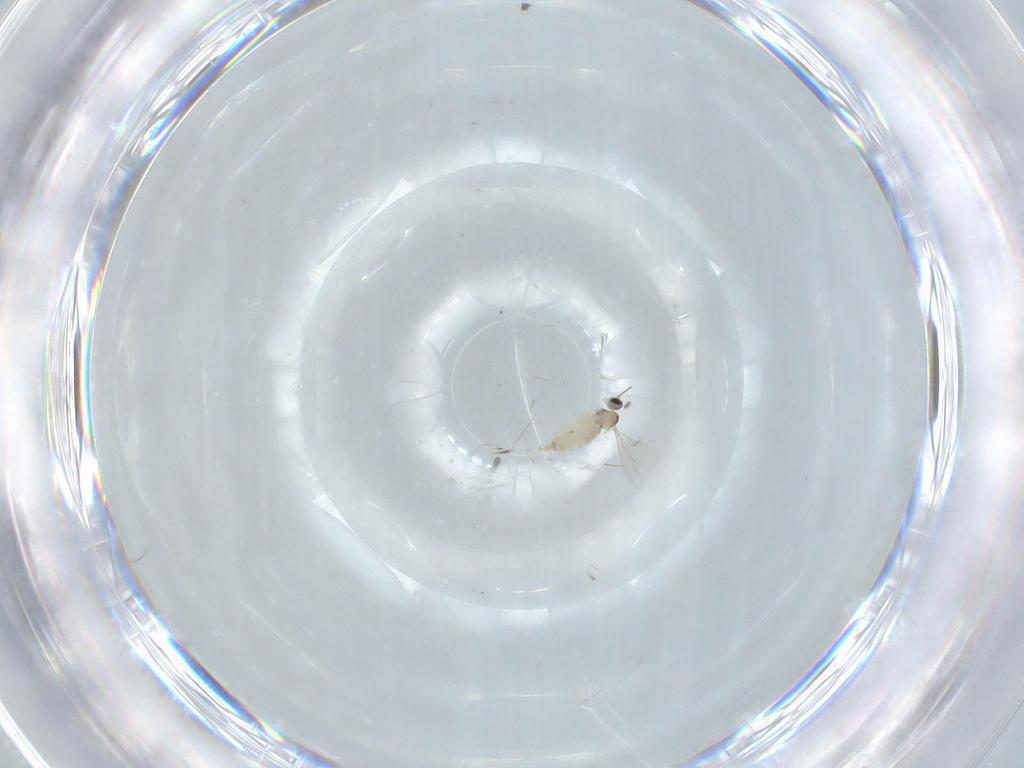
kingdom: Animalia
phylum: Arthropoda
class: Insecta
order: Diptera
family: Cecidomyiidae
